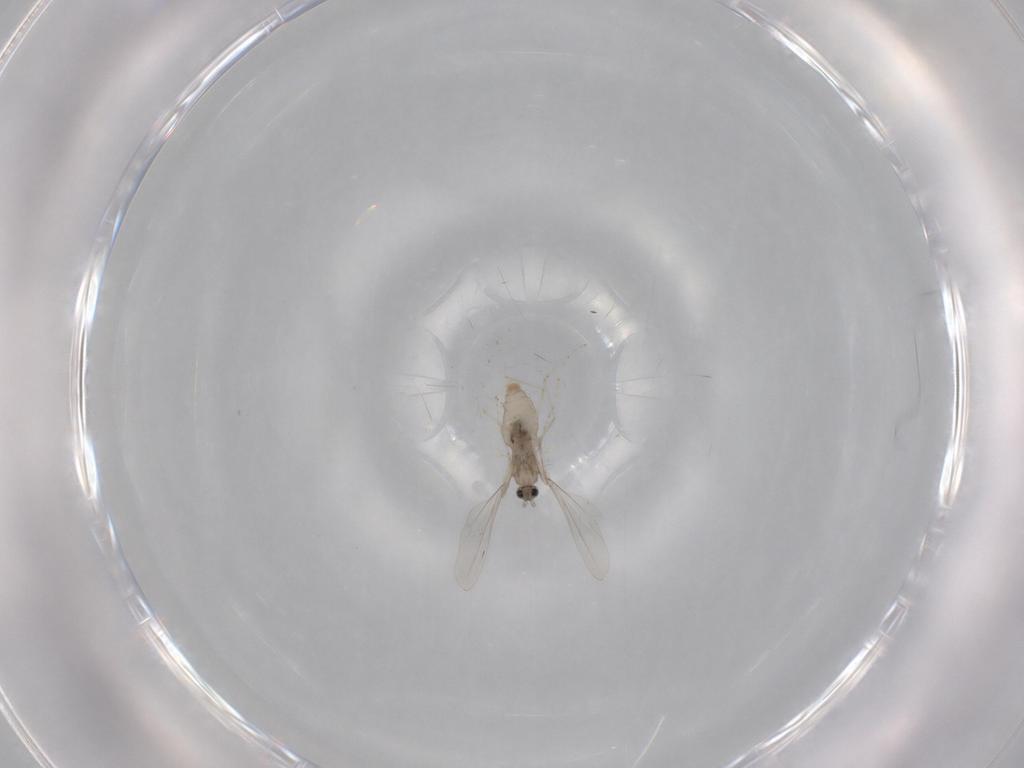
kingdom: Animalia
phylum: Arthropoda
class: Insecta
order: Diptera
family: Cecidomyiidae
